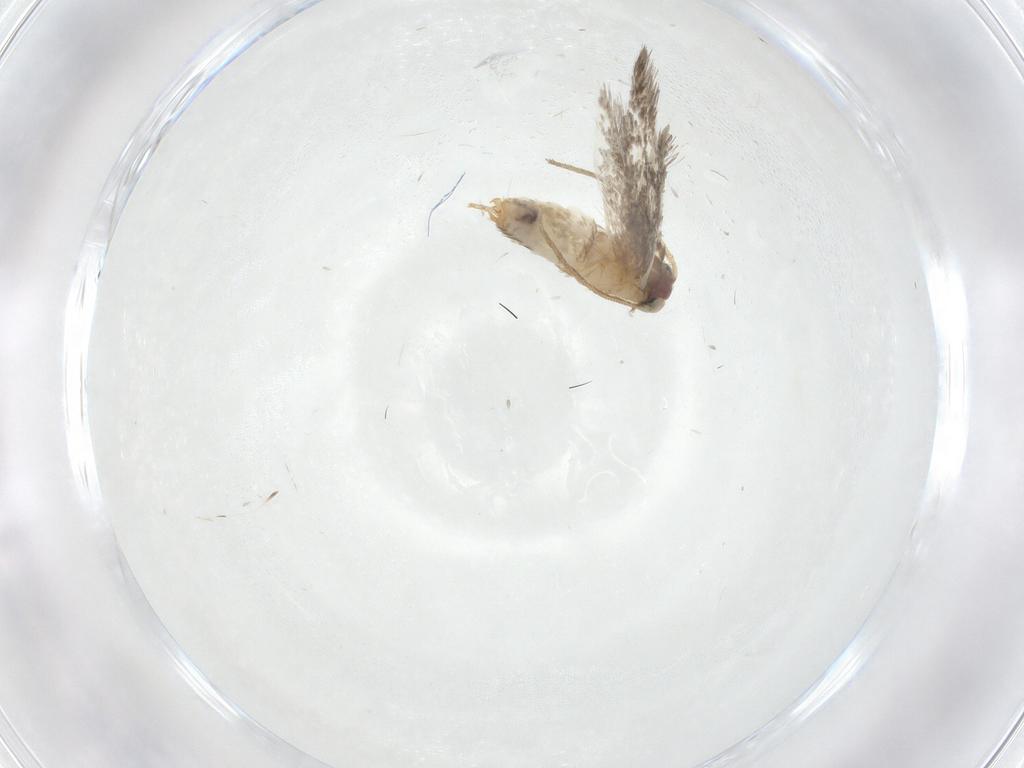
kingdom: Animalia
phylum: Arthropoda
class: Insecta
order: Lepidoptera
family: Nepticulidae
